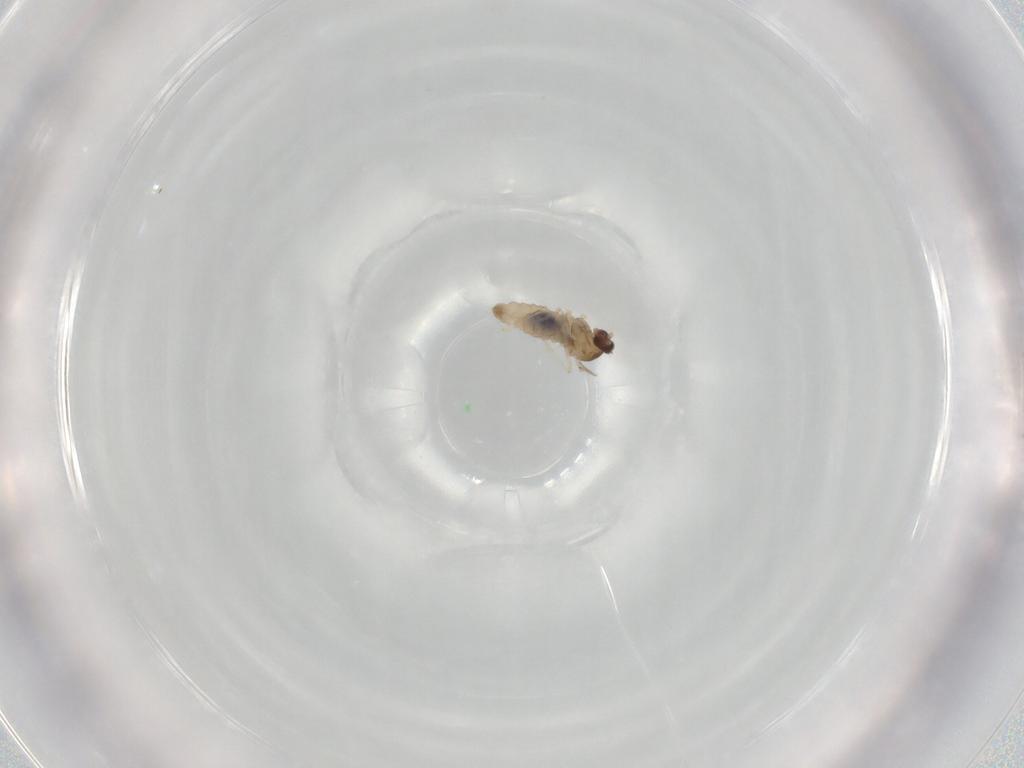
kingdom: Animalia
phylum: Arthropoda
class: Insecta
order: Diptera
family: Cecidomyiidae
